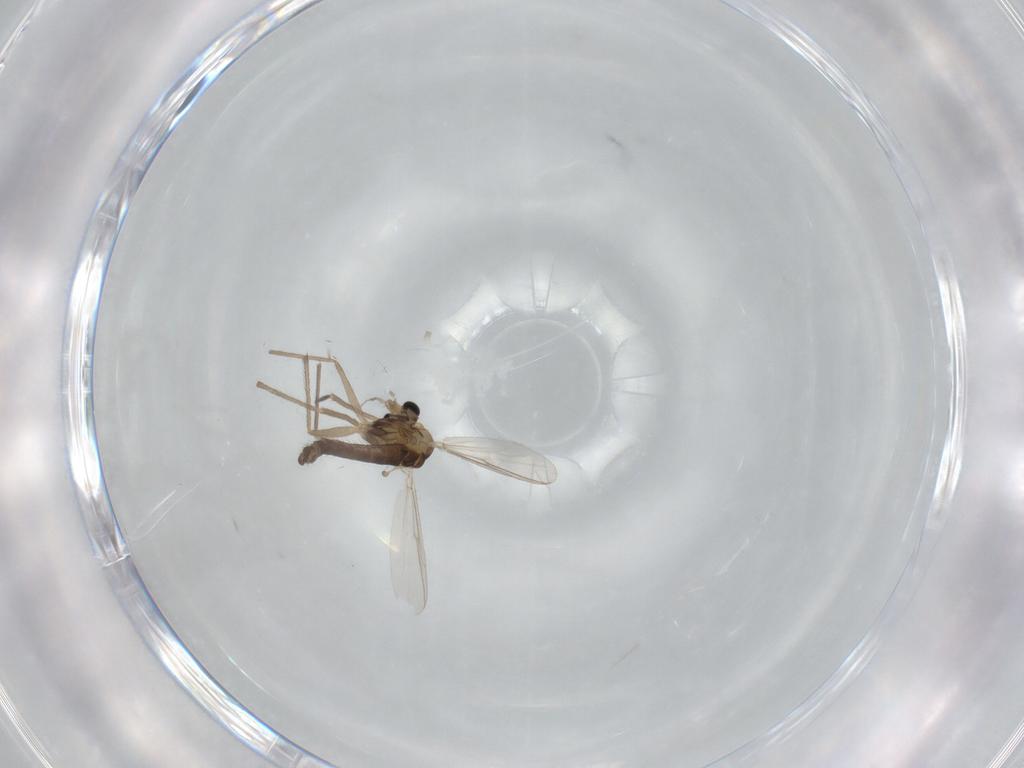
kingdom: Animalia
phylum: Arthropoda
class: Insecta
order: Diptera
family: Chironomidae
